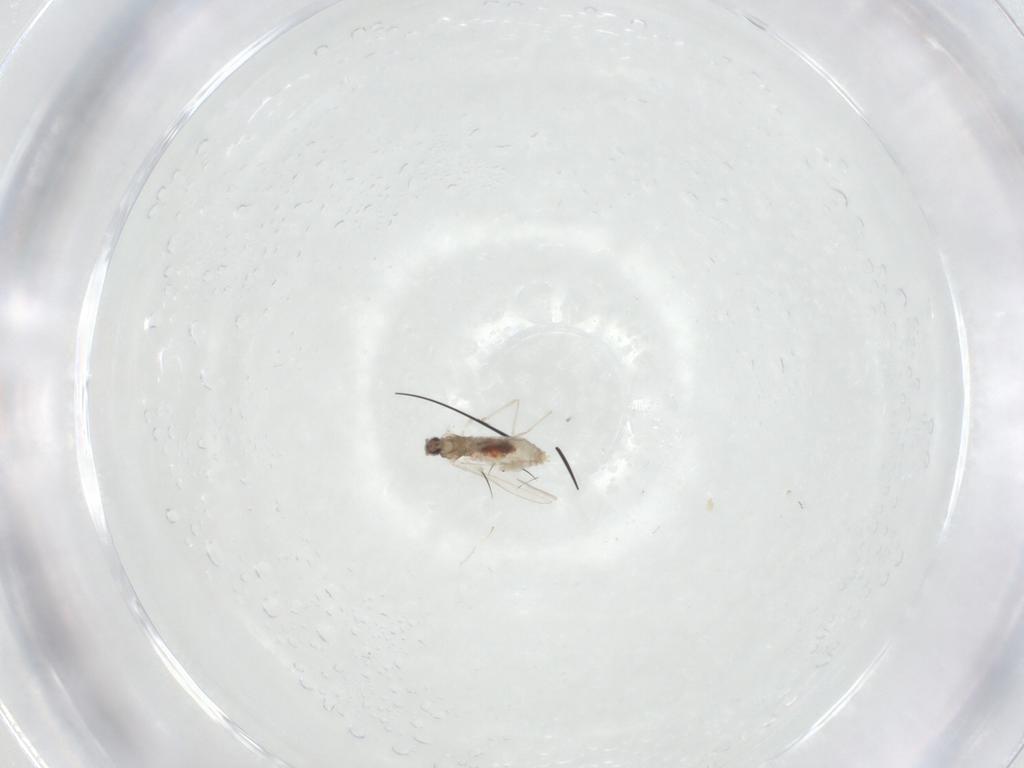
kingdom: Animalia
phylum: Arthropoda
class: Insecta
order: Diptera
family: Cecidomyiidae
